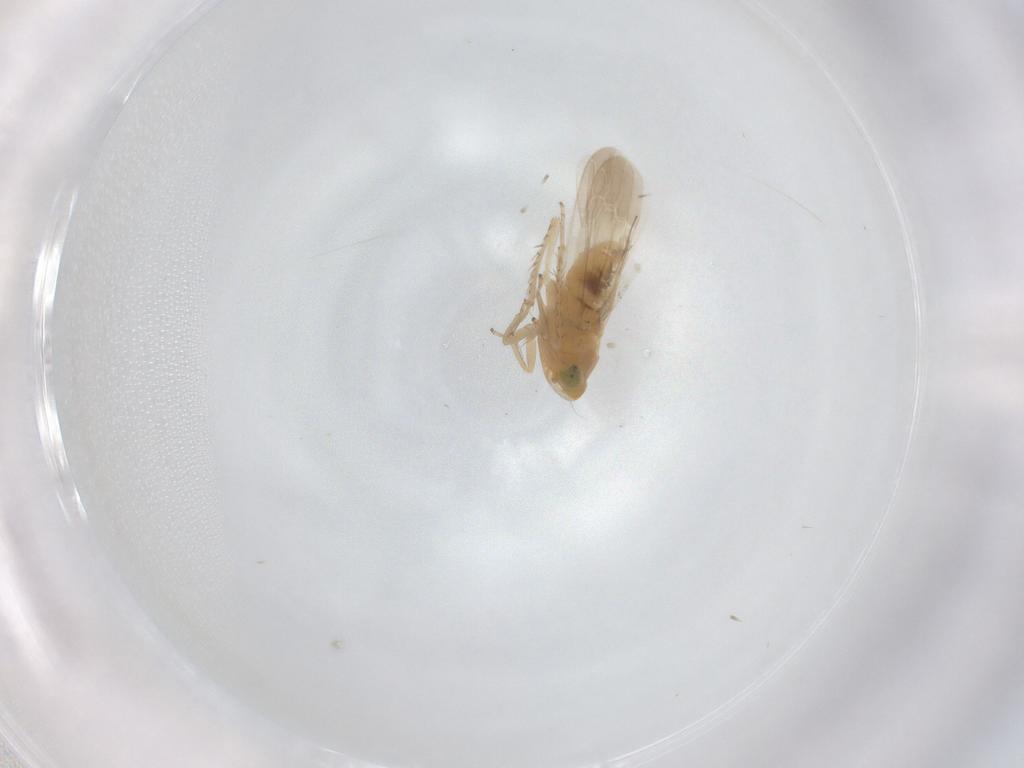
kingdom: Animalia
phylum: Arthropoda
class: Insecta
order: Hemiptera
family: Cicadellidae
